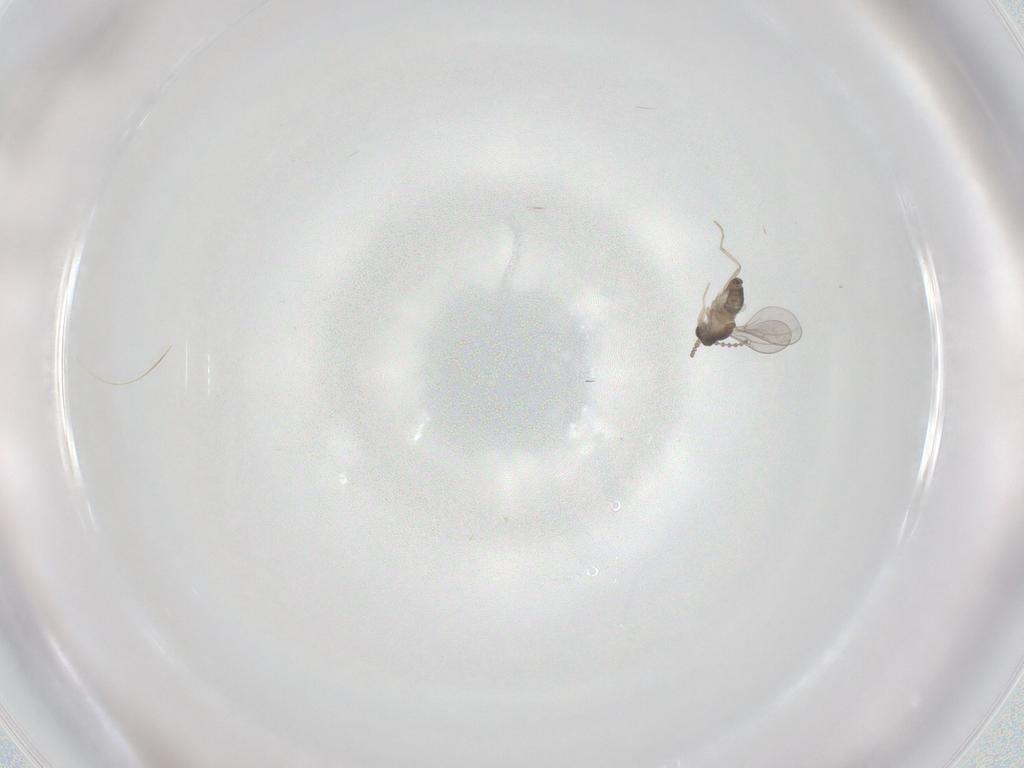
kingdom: Animalia
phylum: Arthropoda
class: Insecta
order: Diptera
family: Cecidomyiidae
